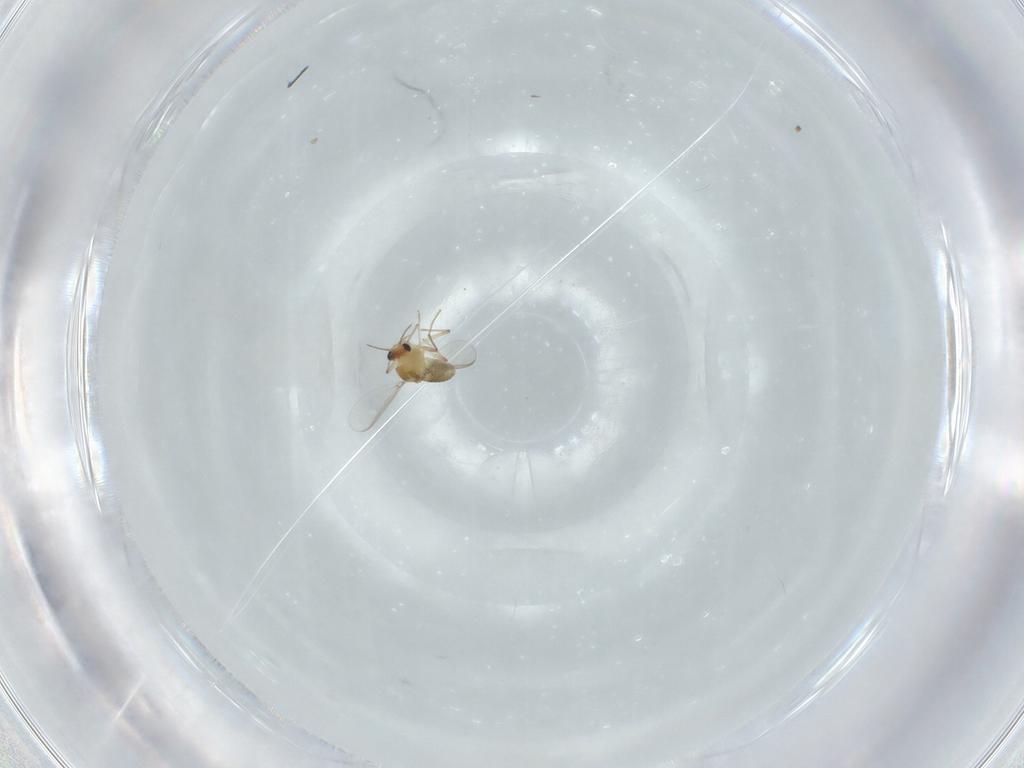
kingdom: Animalia
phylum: Arthropoda
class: Insecta
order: Diptera
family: Chironomidae
